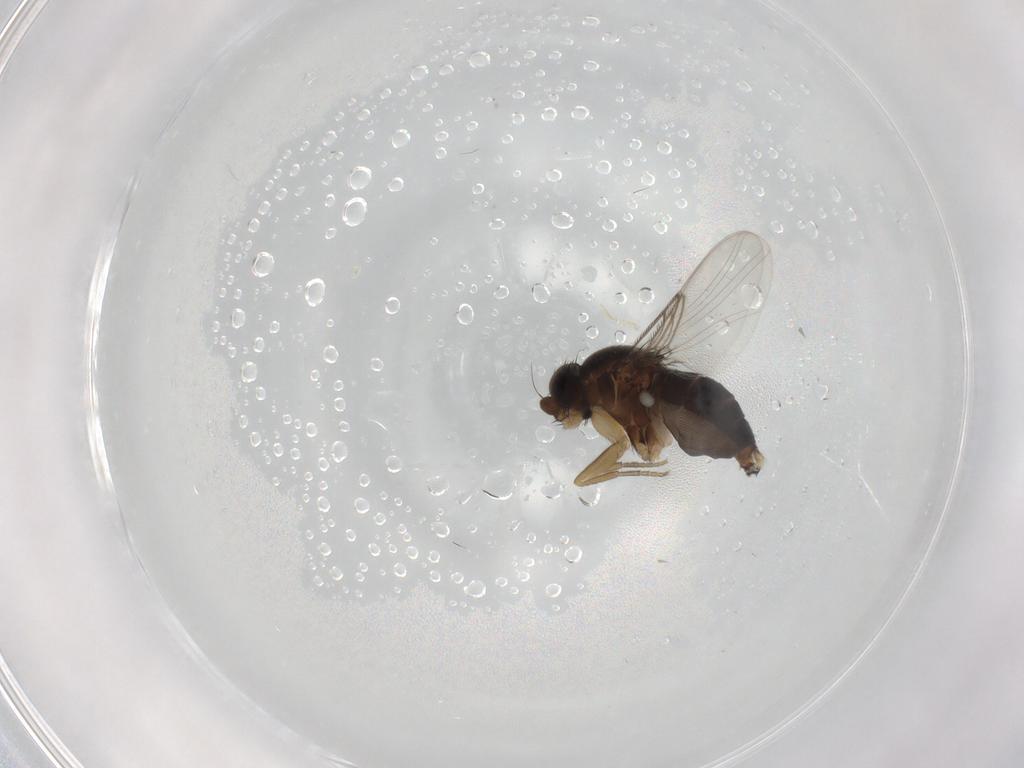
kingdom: Animalia
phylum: Arthropoda
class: Insecta
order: Diptera
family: Phoridae
